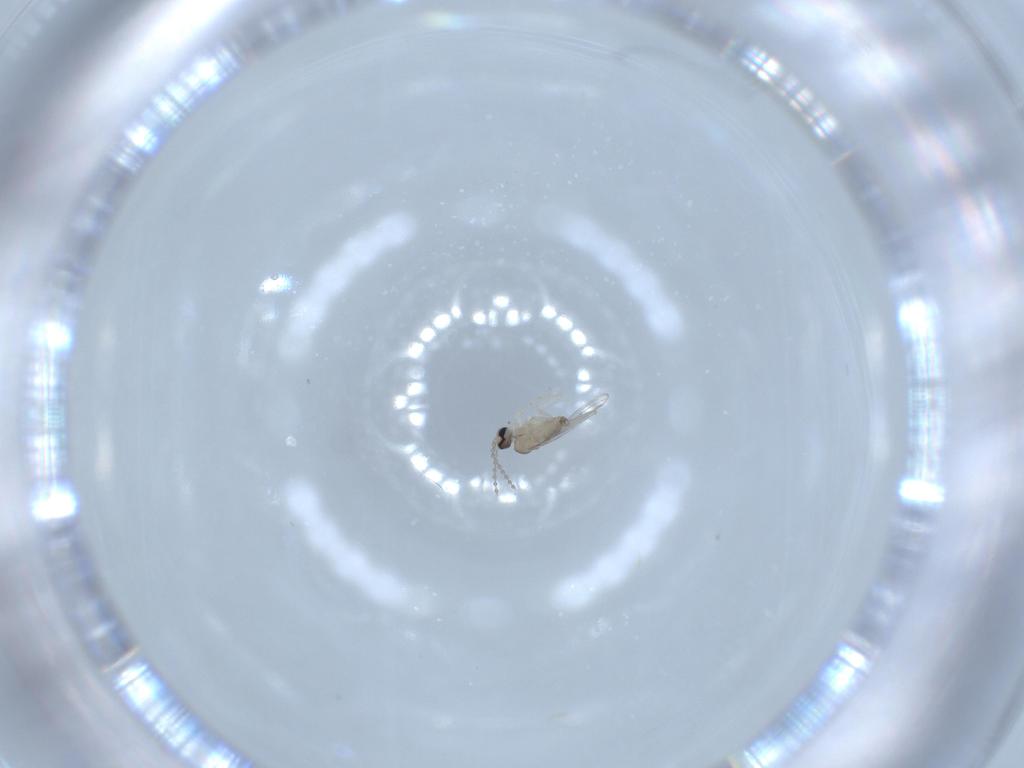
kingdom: Animalia
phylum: Arthropoda
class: Insecta
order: Diptera
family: Cecidomyiidae
